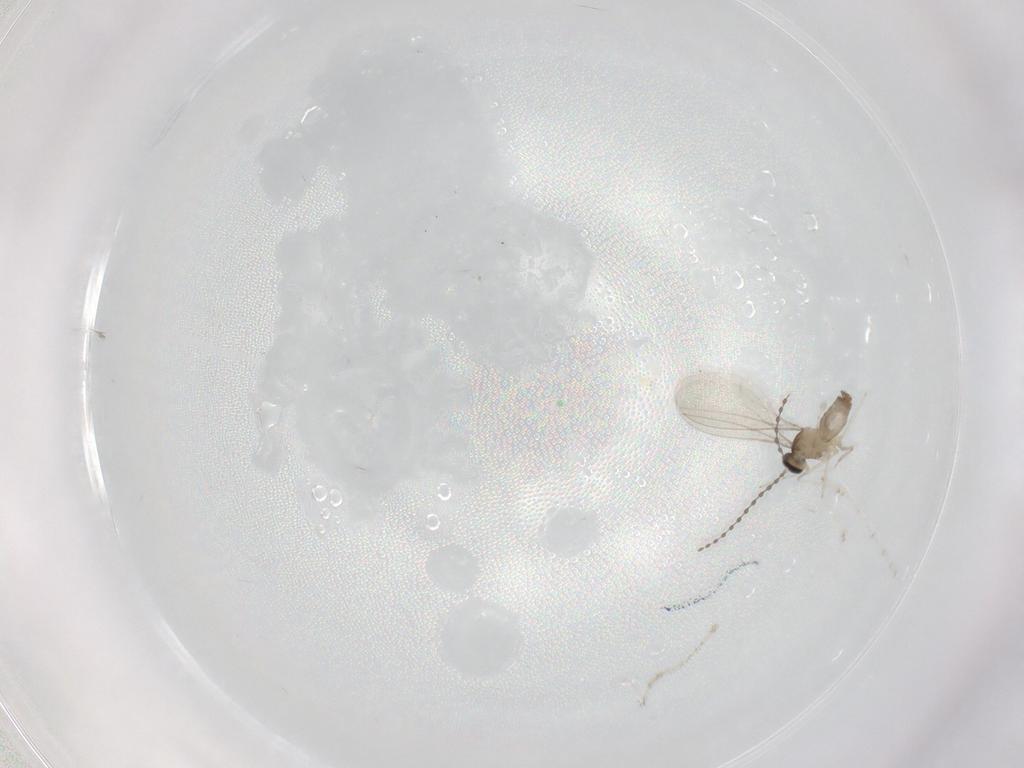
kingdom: Animalia
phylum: Arthropoda
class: Insecta
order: Diptera
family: Cecidomyiidae
